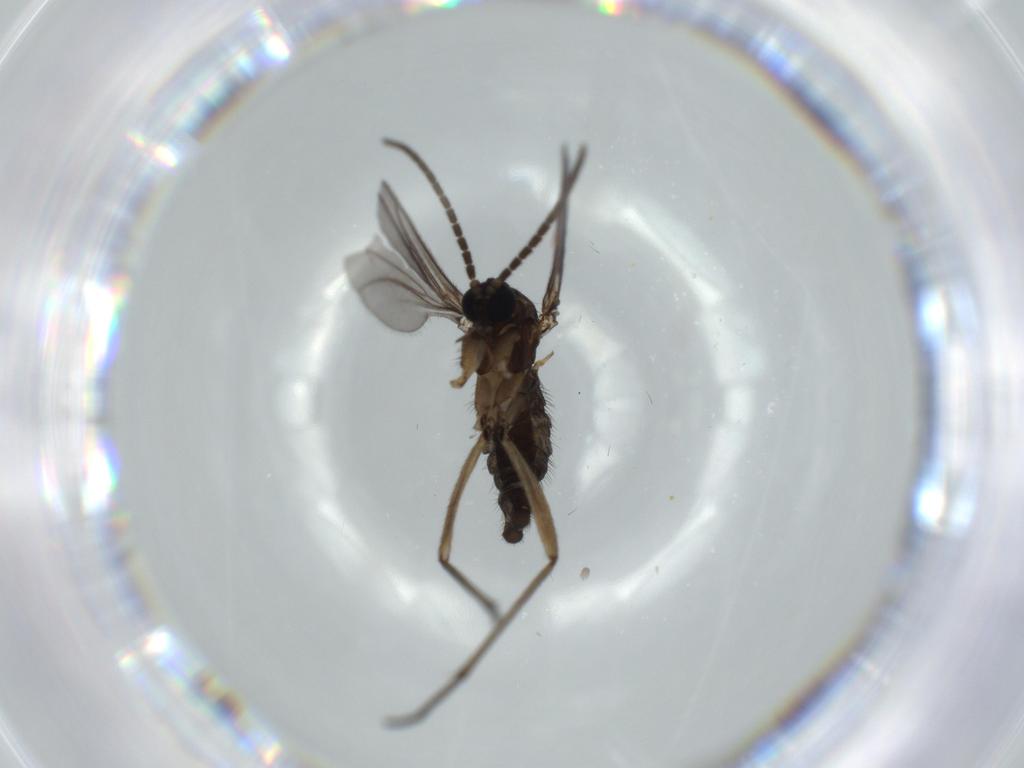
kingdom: Animalia
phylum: Arthropoda
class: Insecta
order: Diptera
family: Sciaridae
